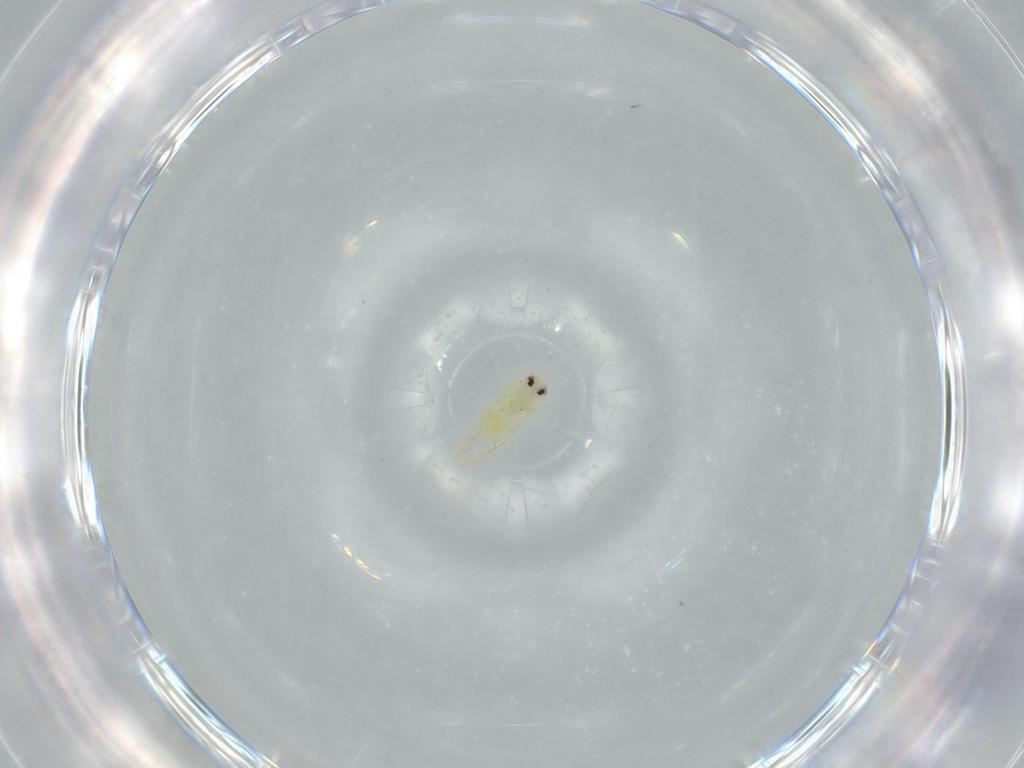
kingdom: Animalia
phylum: Arthropoda
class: Insecta
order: Hemiptera
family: Aleyrodidae
